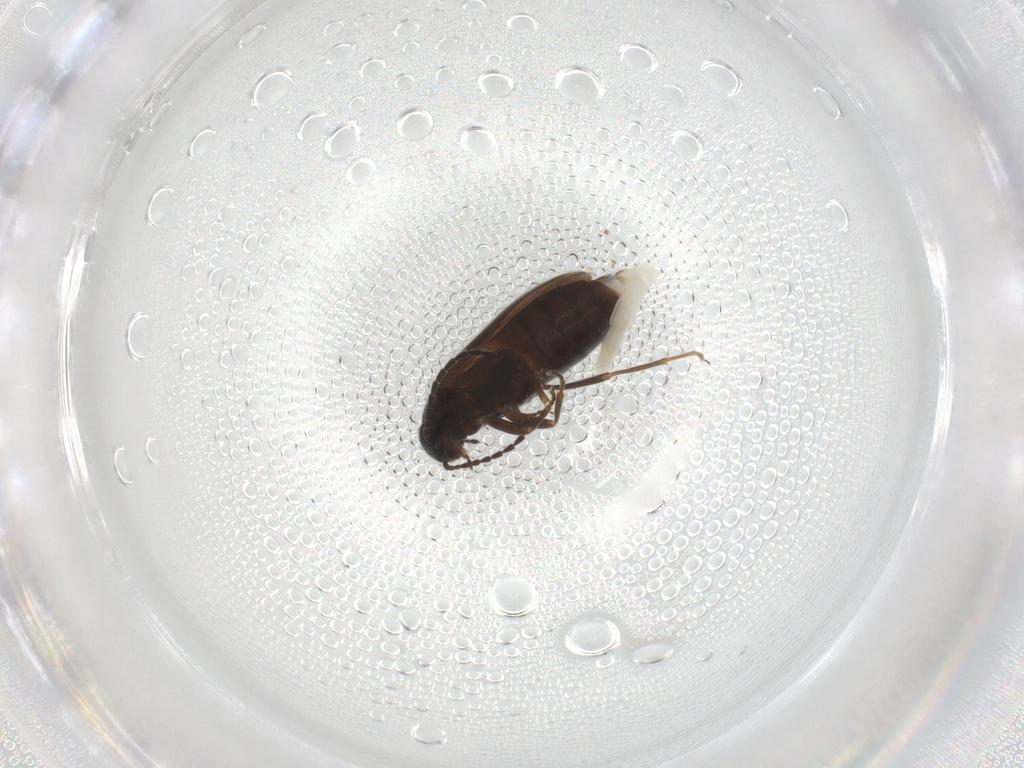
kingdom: Animalia
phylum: Arthropoda
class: Insecta
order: Coleoptera
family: Scraptiidae
